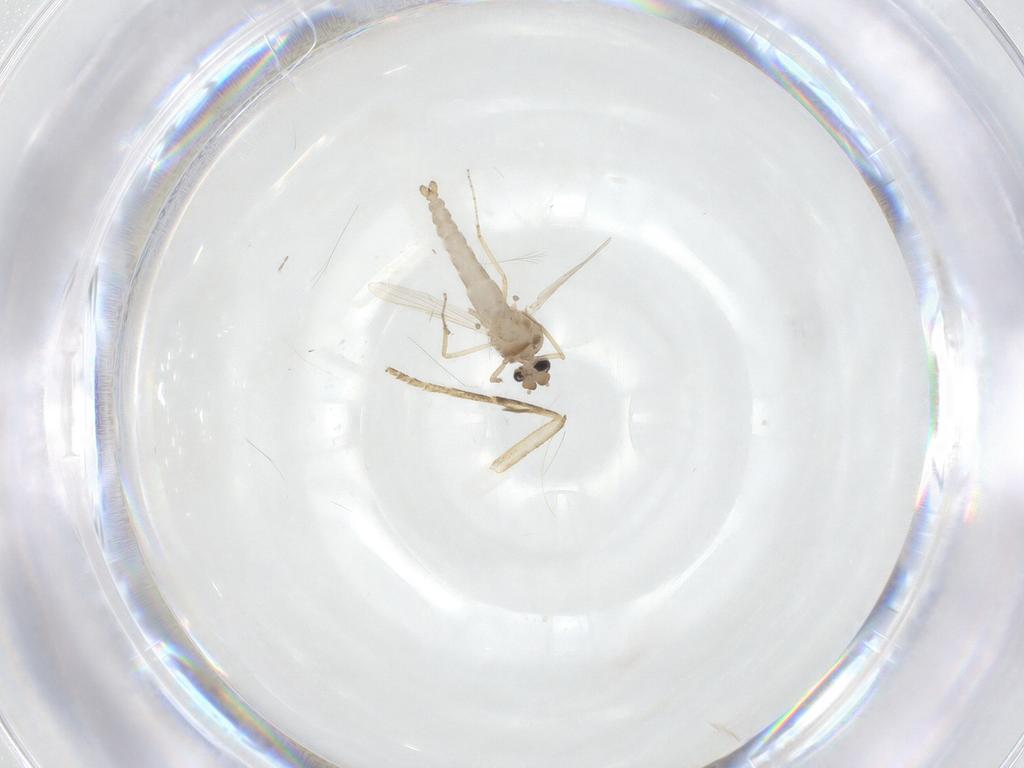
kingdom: Animalia
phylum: Arthropoda
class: Insecta
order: Diptera
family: Ceratopogonidae
